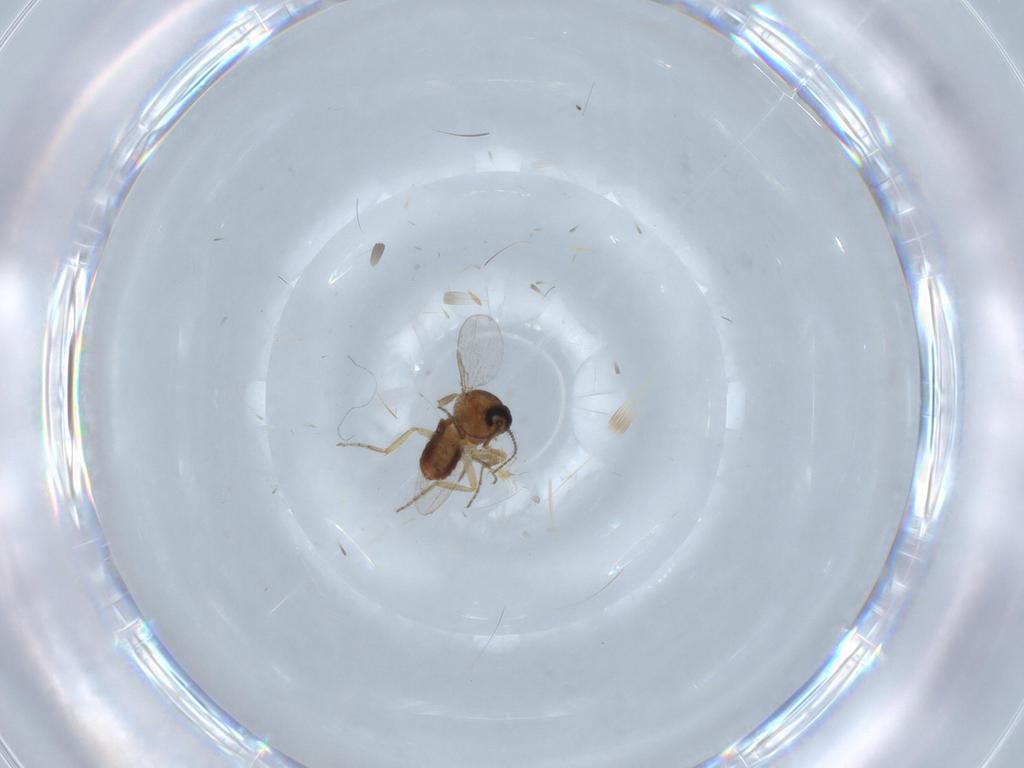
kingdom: Animalia
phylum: Arthropoda
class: Insecta
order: Diptera
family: Ceratopogonidae
